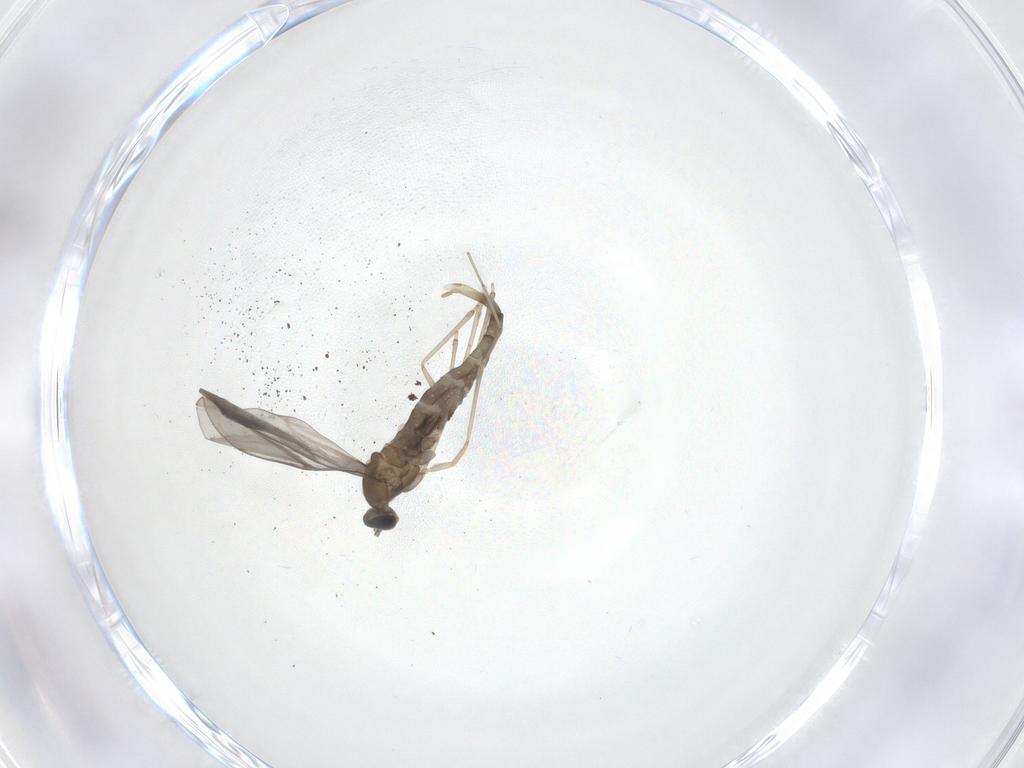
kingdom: Animalia
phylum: Arthropoda
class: Insecta
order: Diptera
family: Cecidomyiidae
